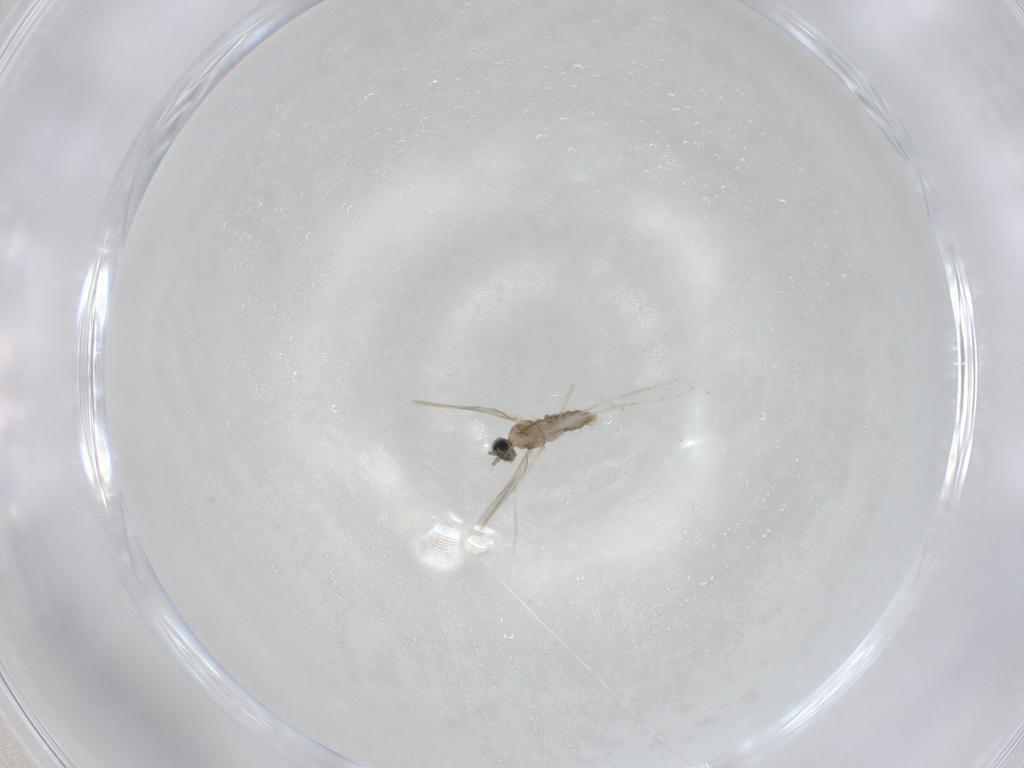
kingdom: Animalia
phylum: Arthropoda
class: Insecta
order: Diptera
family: Cecidomyiidae
